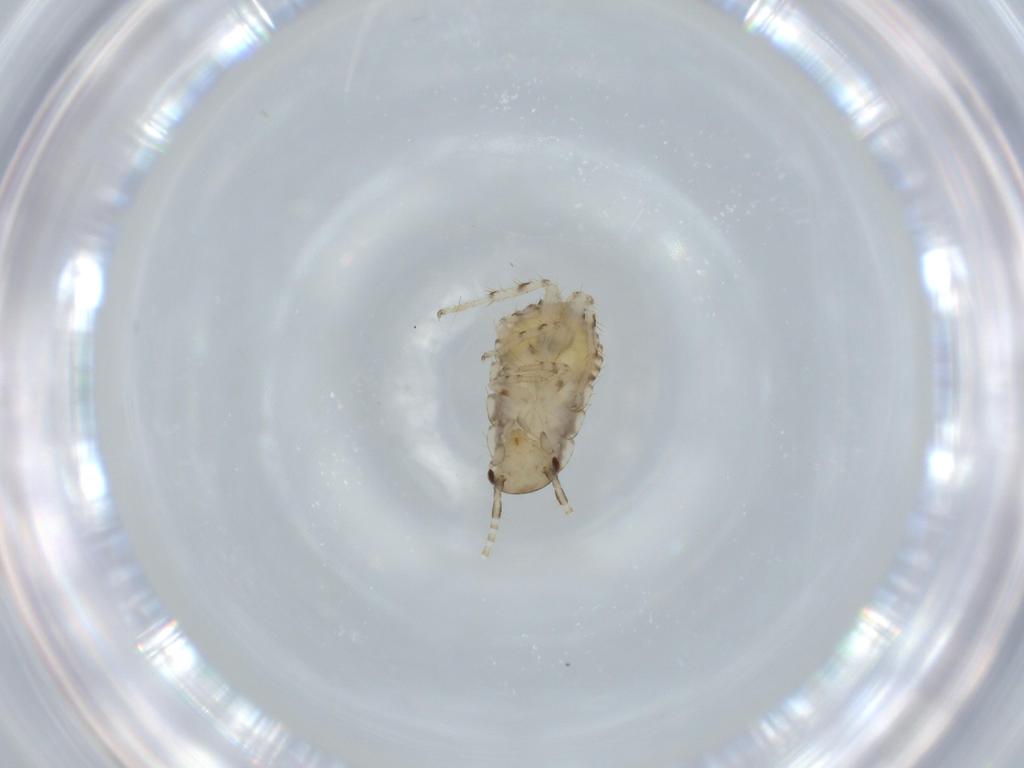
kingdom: Animalia
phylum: Arthropoda
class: Insecta
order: Blattodea
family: Ectobiidae
